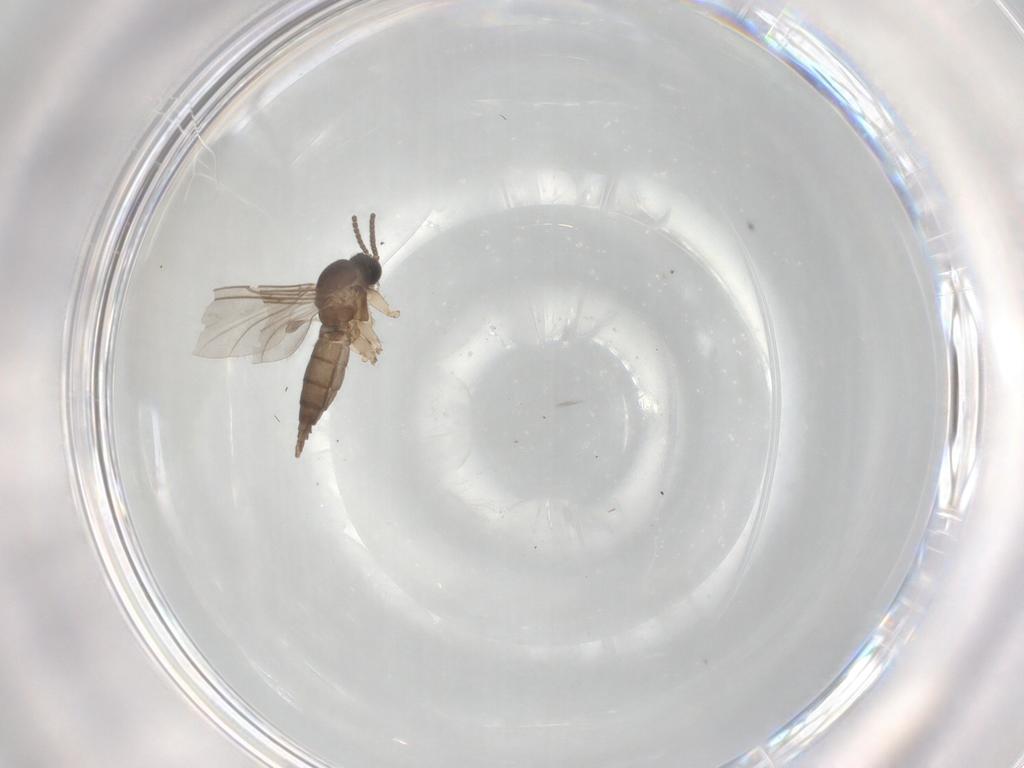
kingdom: Animalia
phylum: Arthropoda
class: Insecta
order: Diptera
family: Sciaridae
